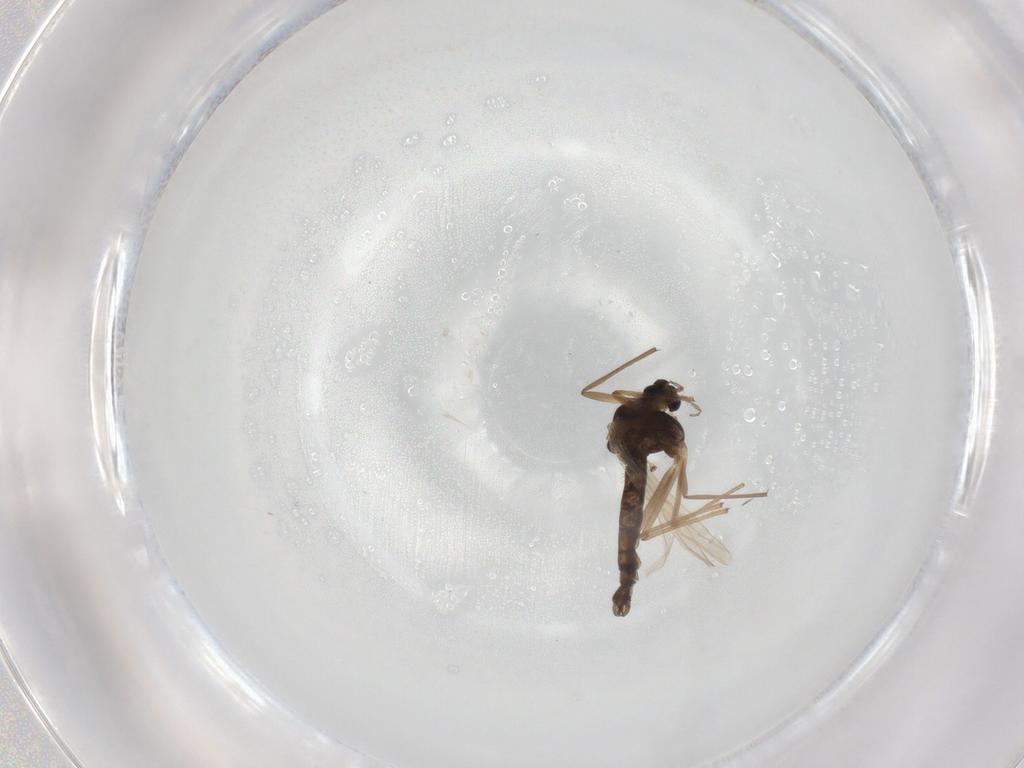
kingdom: Animalia
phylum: Arthropoda
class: Insecta
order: Diptera
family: Chironomidae
